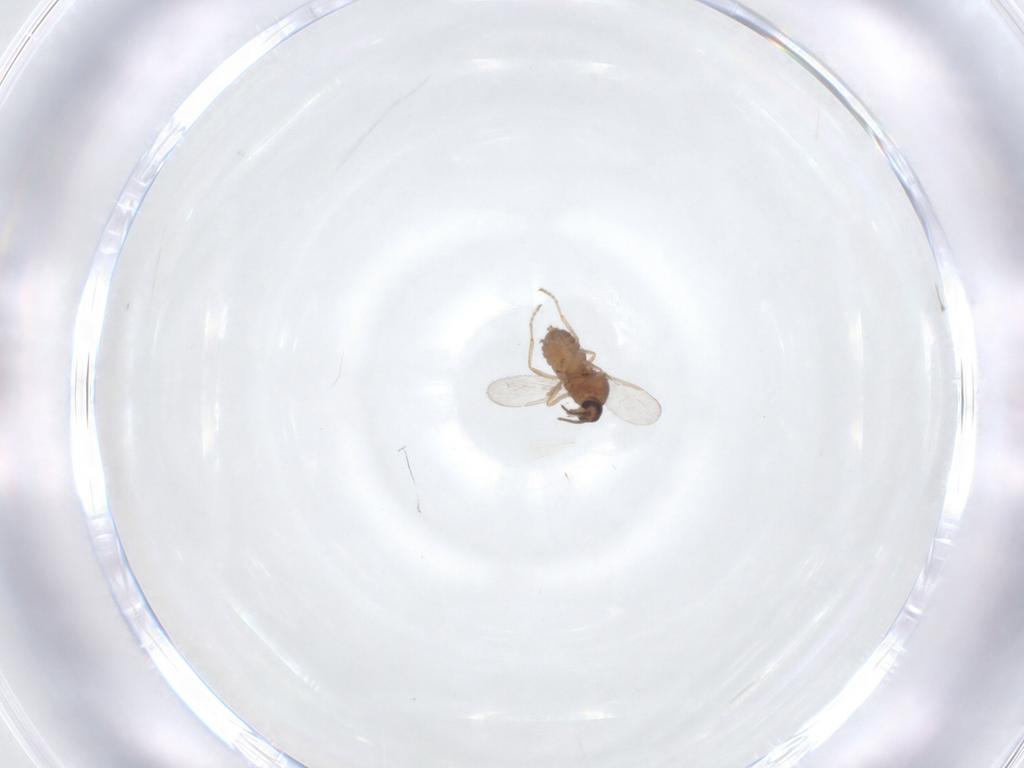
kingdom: Animalia
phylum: Arthropoda
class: Insecta
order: Diptera
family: Ceratopogonidae
